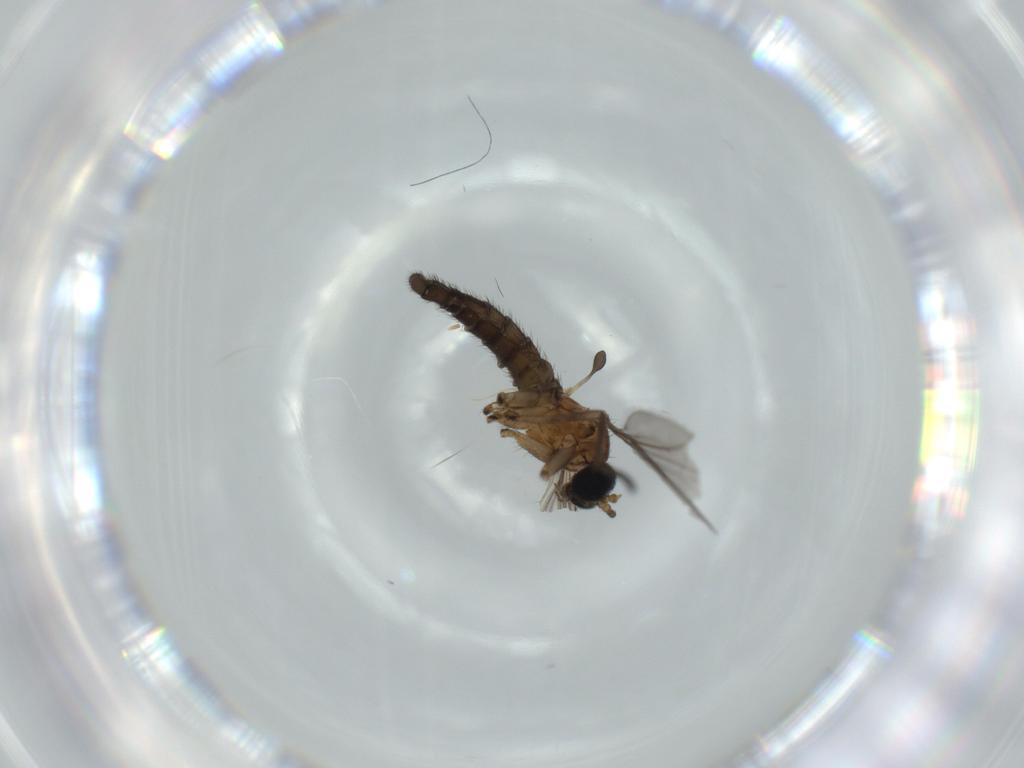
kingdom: Animalia
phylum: Arthropoda
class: Insecta
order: Diptera
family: Sciaridae
